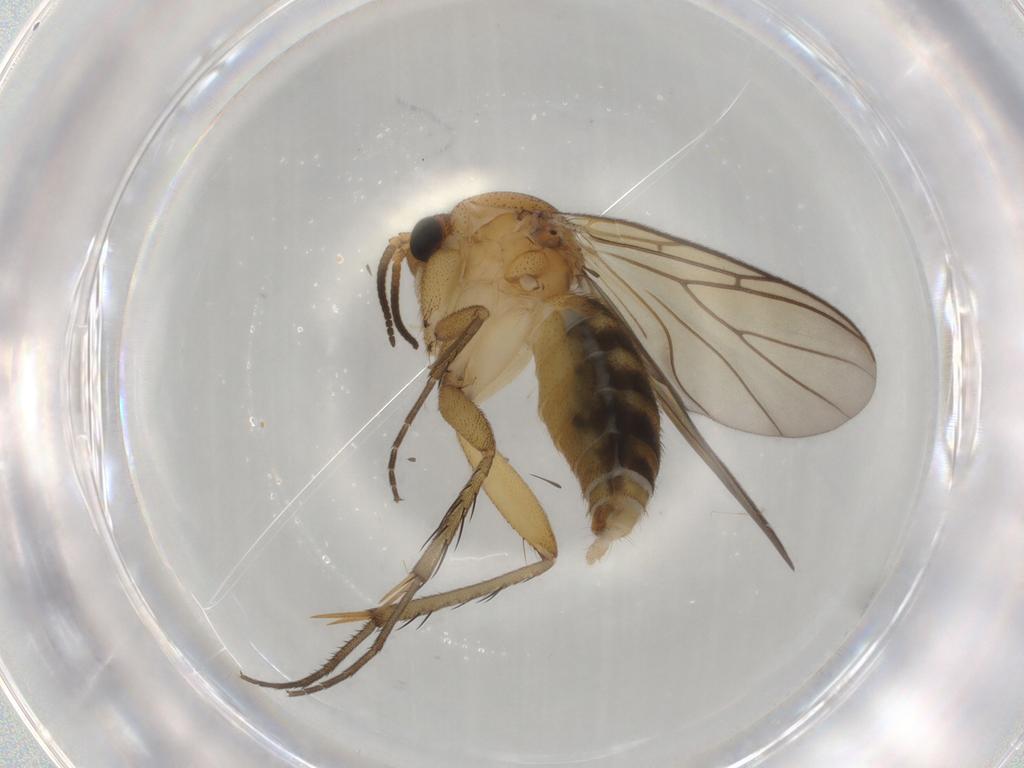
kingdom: Animalia
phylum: Arthropoda
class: Insecta
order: Diptera
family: Mycetophilidae
